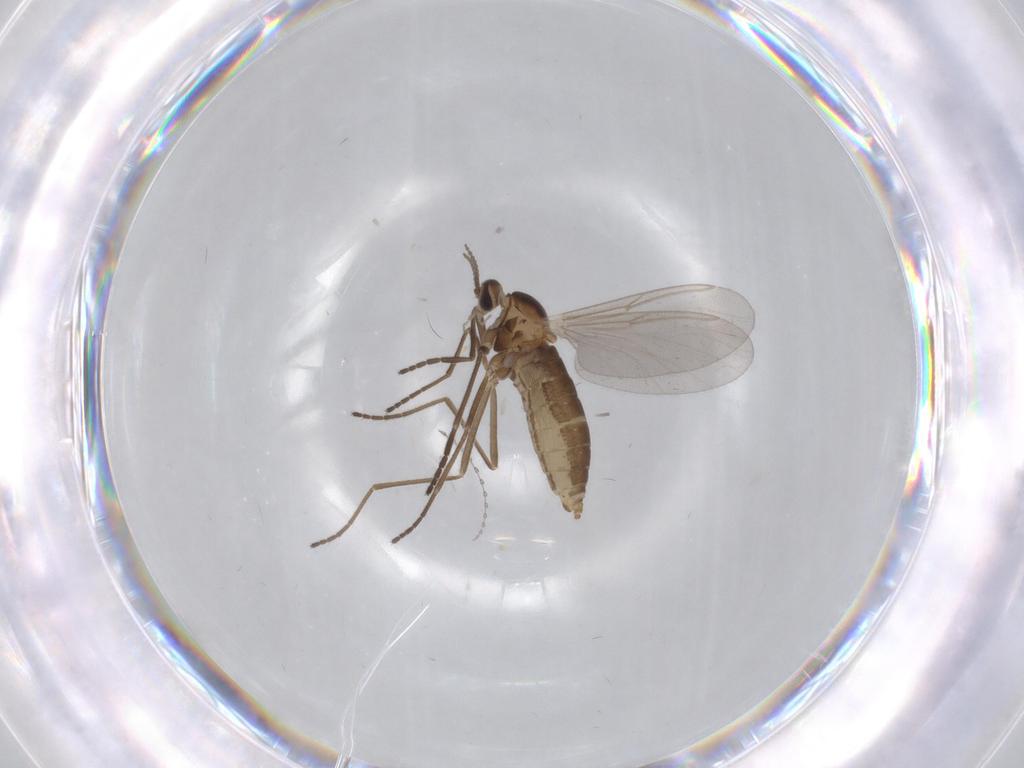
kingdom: Animalia
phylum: Arthropoda
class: Insecta
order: Diptera
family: Cecidomyiidae
